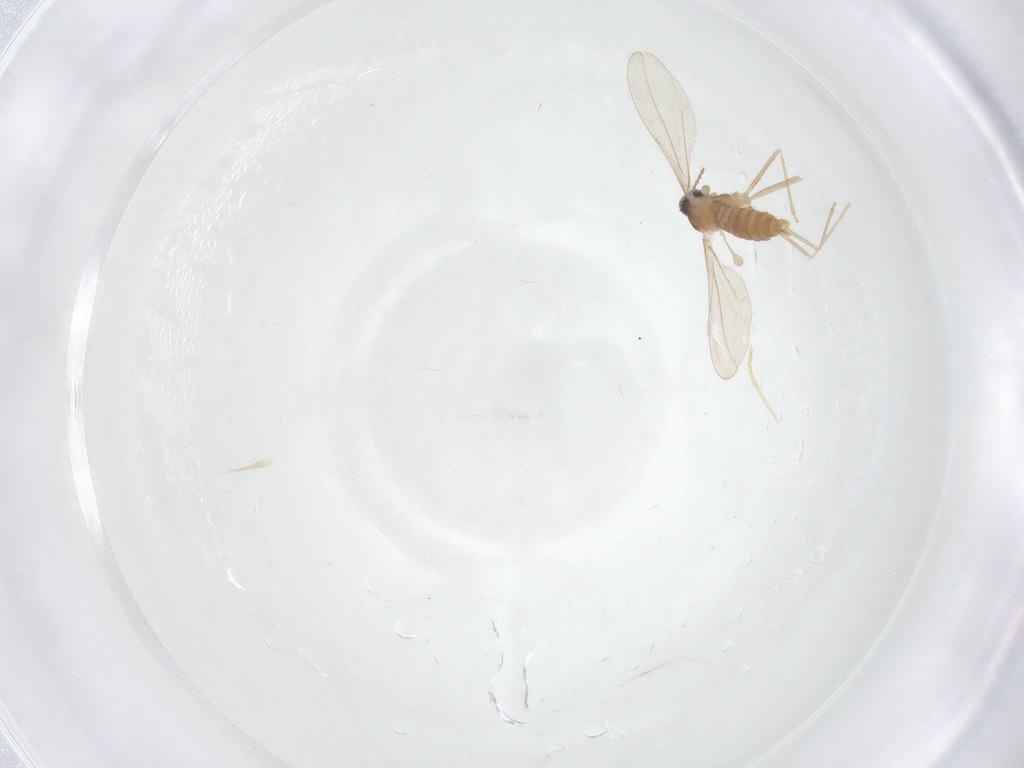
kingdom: Animalia
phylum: Arthropoda
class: Insecta
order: Diptera
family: Cecidomyiidae
